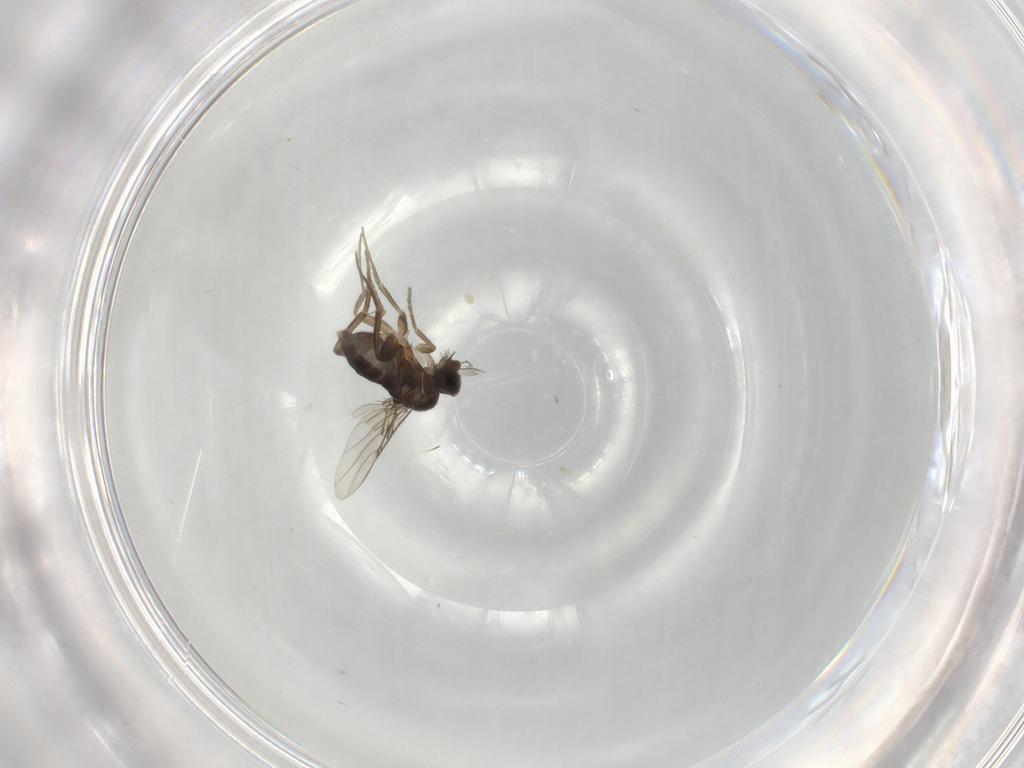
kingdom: Animalia
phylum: Arthropoda
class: Insecta
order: Diptera
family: Phoridae
